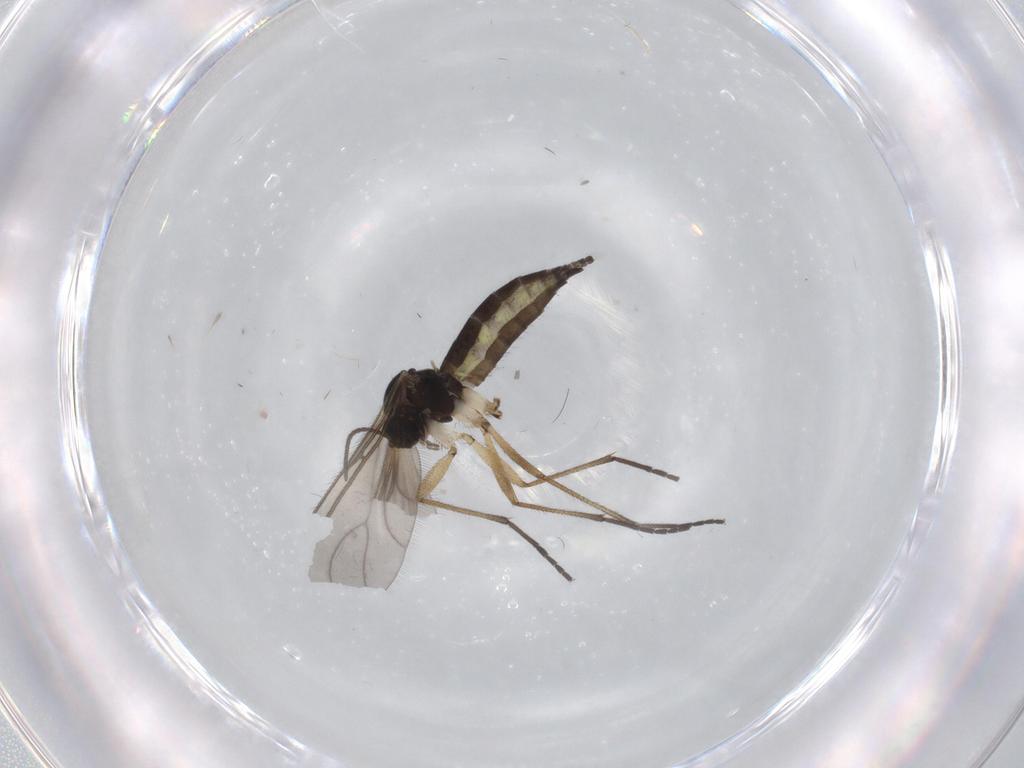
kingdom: Animalia
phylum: Arthropoda
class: Insecta
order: Diptera
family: Sciaridae
